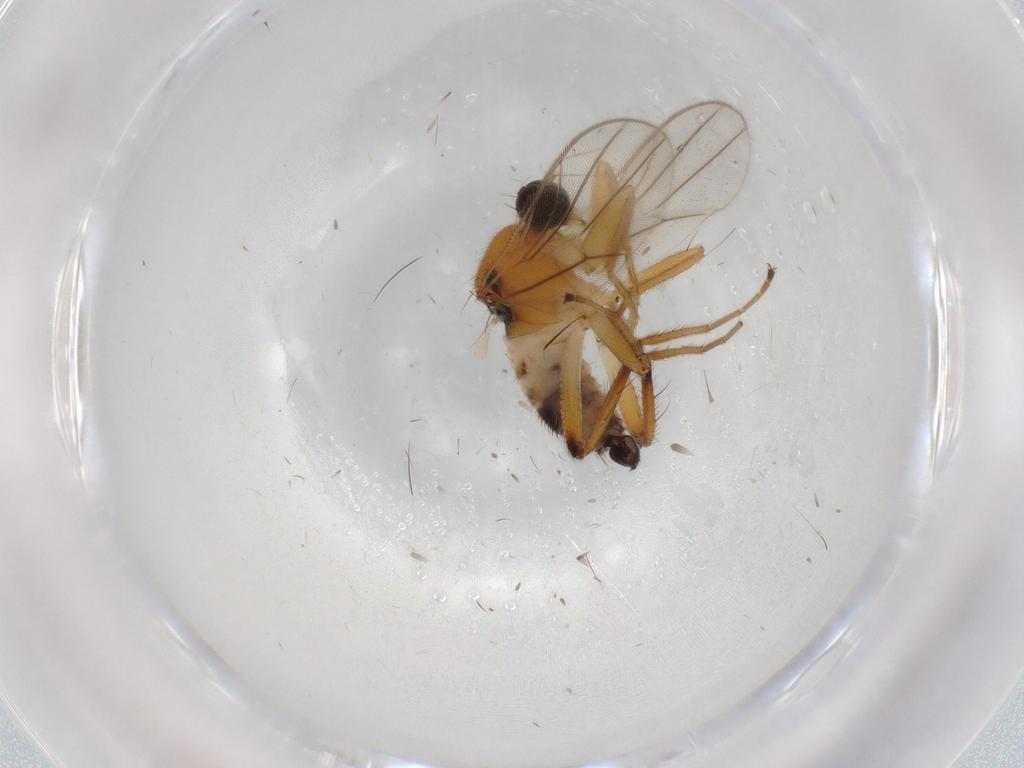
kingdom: Animalia
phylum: Arthropoda
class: Insecta
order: Diptera
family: Hybotidae
